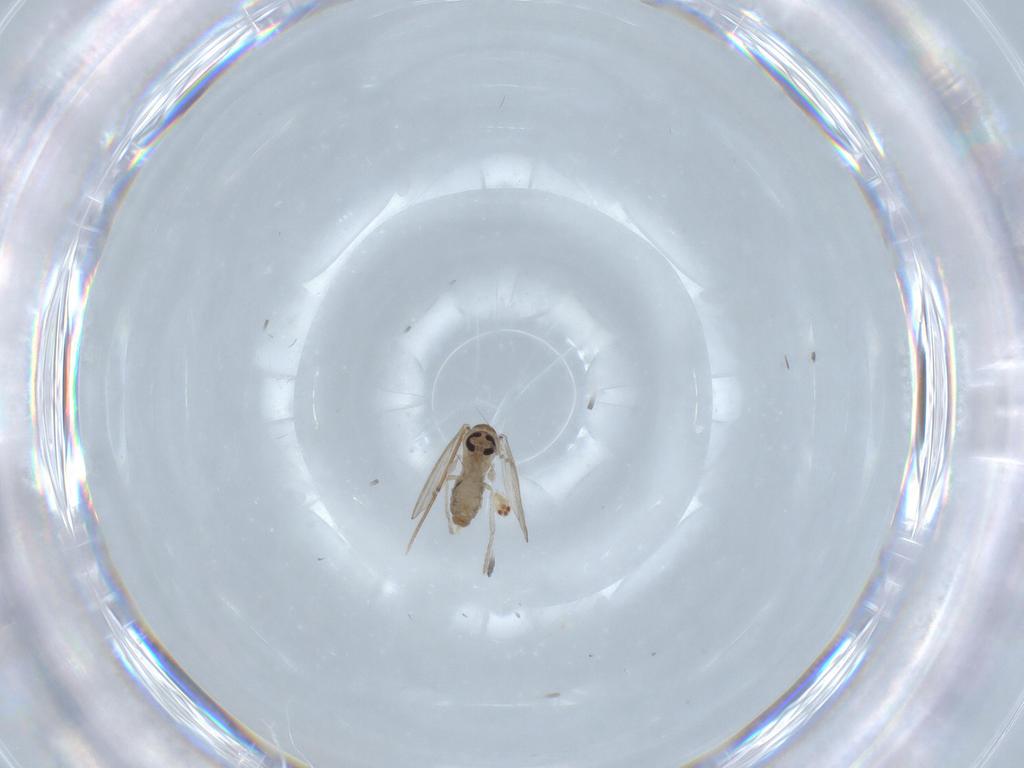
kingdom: Animalia
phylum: Arthropoda
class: Insecta
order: Diptera
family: Psychodidae
